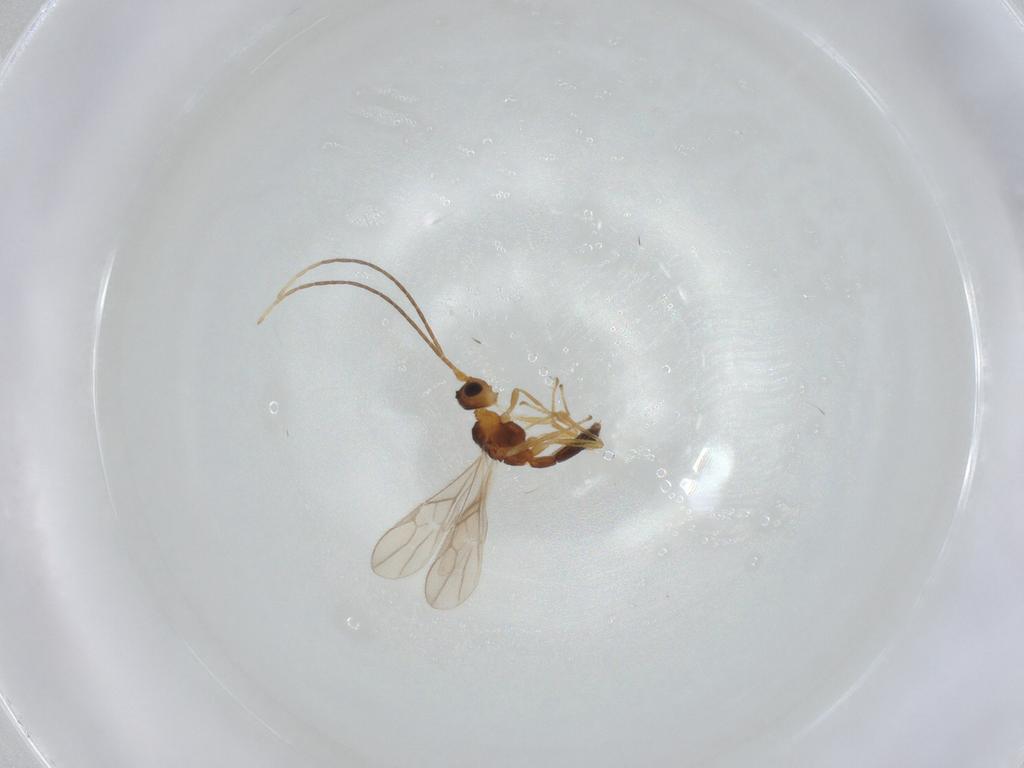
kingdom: Animalia
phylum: Arthropoda
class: Insecta
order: Hymenoptera
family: Braconidae
